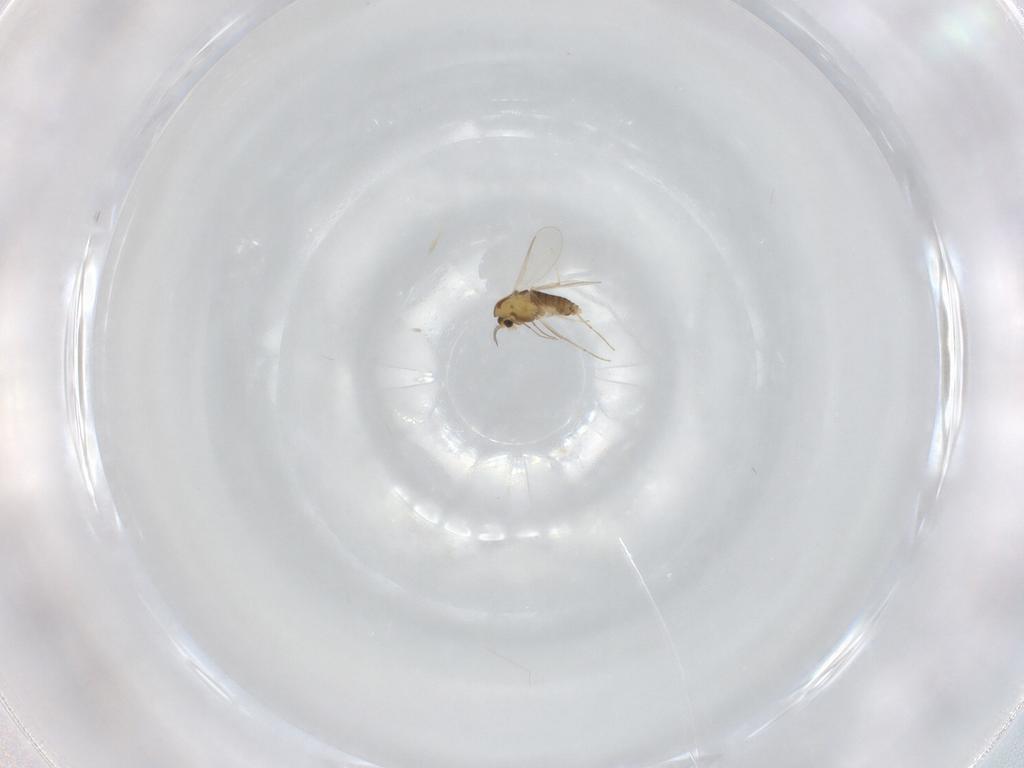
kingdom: Animalia
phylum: Arthropoda
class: Insecta
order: Diptera
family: Chironomidae
